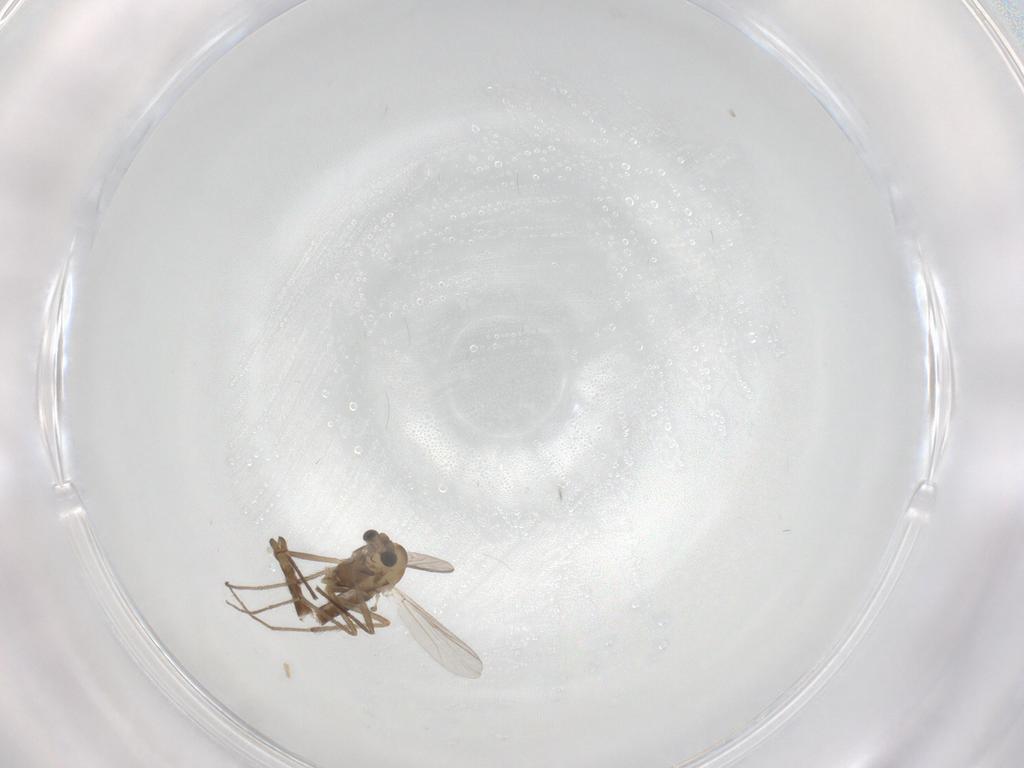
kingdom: Animalia
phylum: Arthropoda
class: Insecta
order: Diptera
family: Chironomidae
